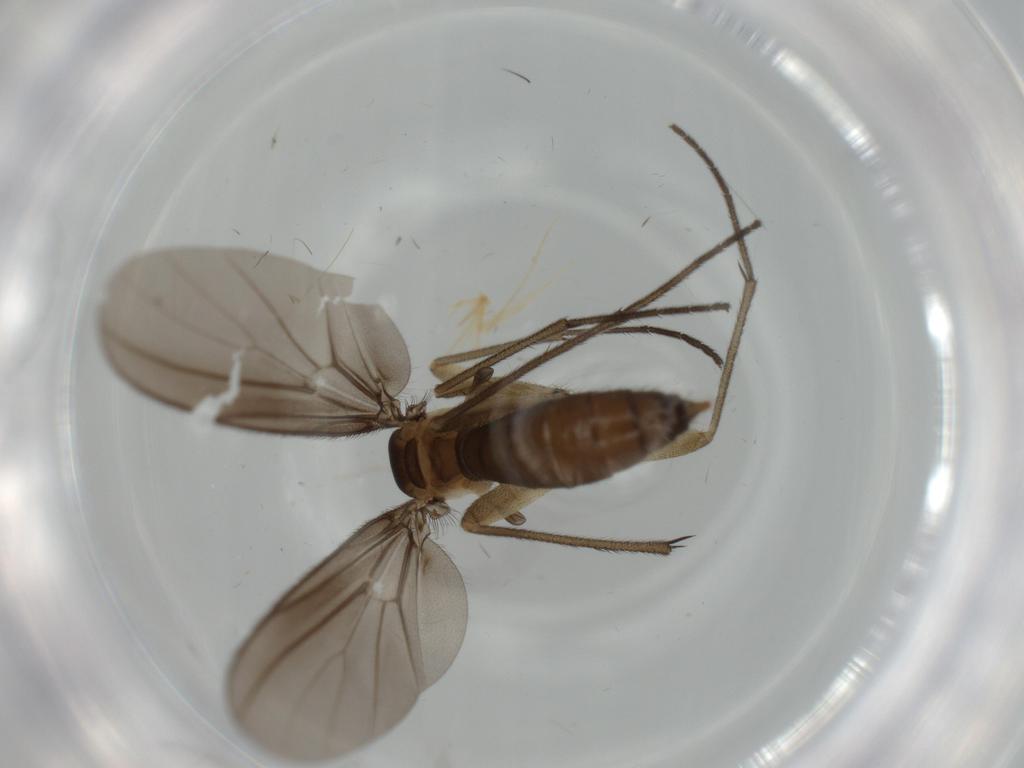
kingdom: Animalia
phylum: Arthropoda
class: Insecta
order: Diptera
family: Diadocidiidae
